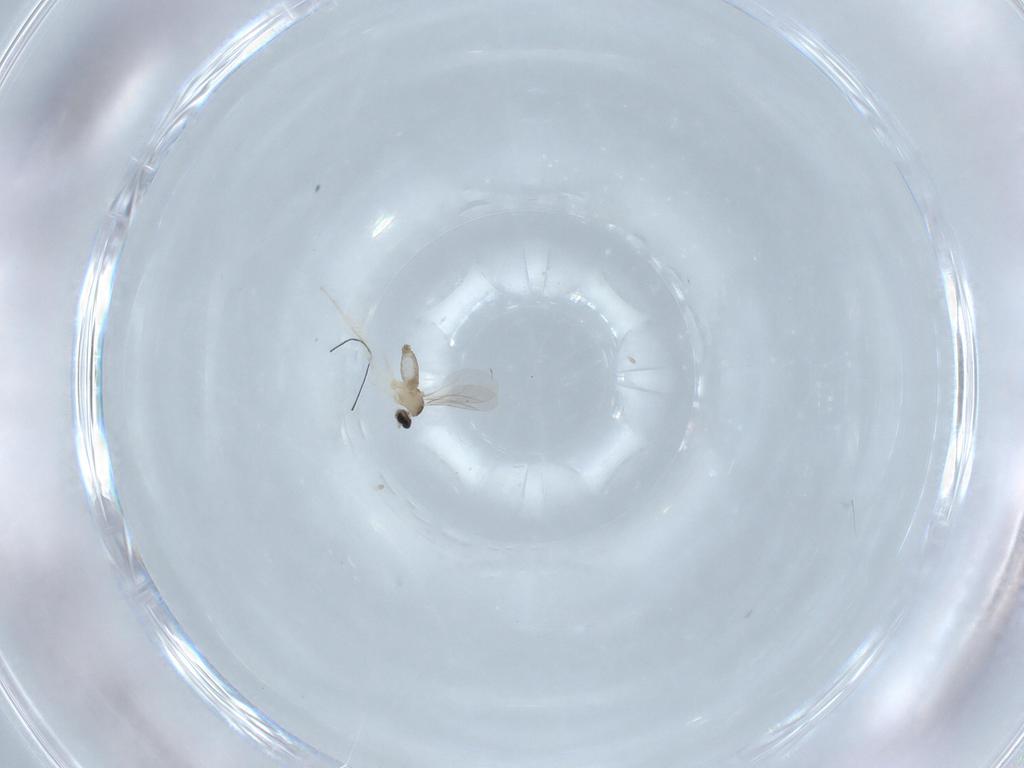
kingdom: Animalia
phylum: Arthropoda
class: Insecta
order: Diptera
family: Cecidomyiidae
